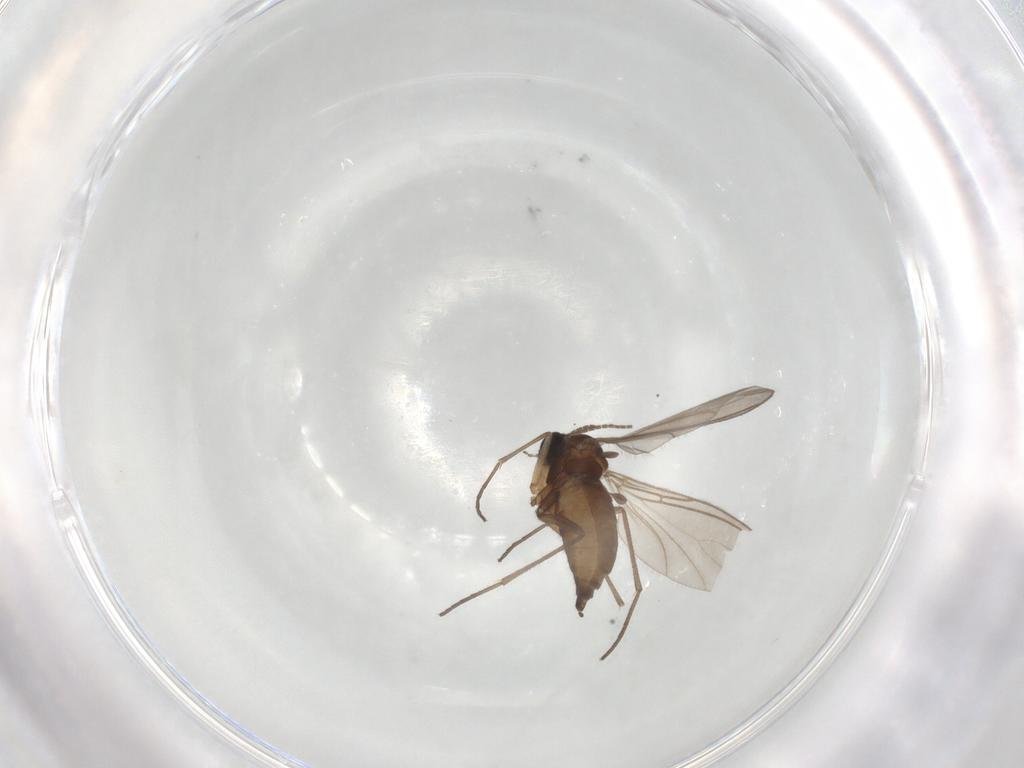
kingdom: Animalia
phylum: Arthropoda
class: Insecta
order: Diptera
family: Sciaridae
